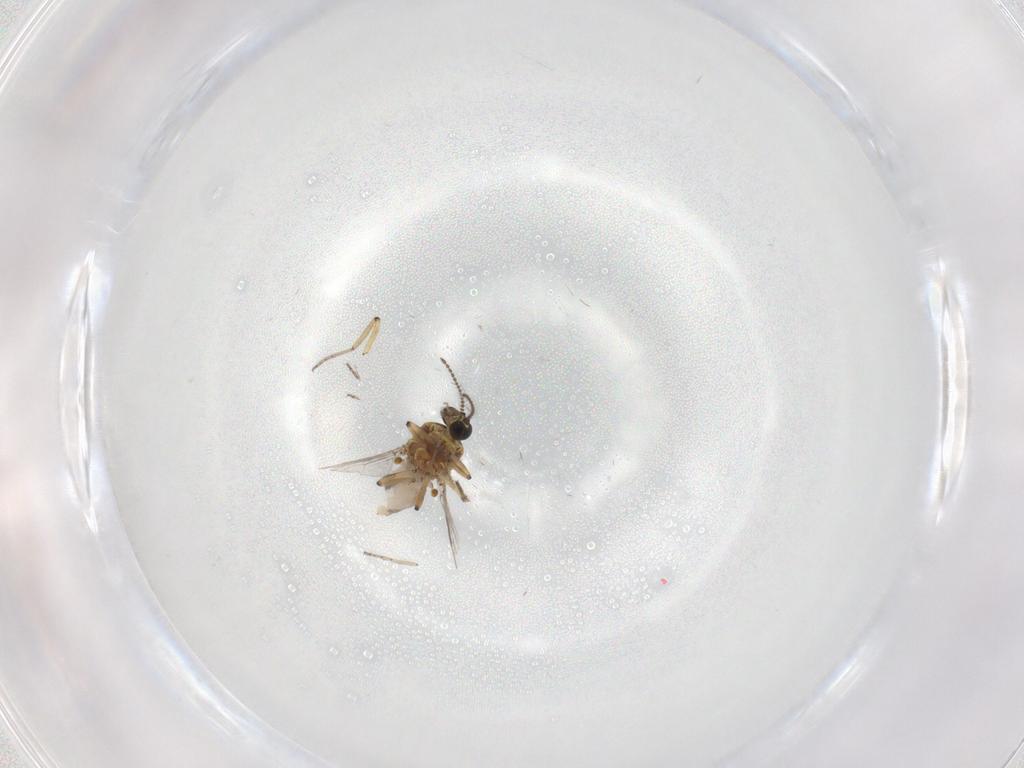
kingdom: Animalia
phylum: Arthropoda
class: Insecta
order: Diptera
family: Ceratopogonidae
